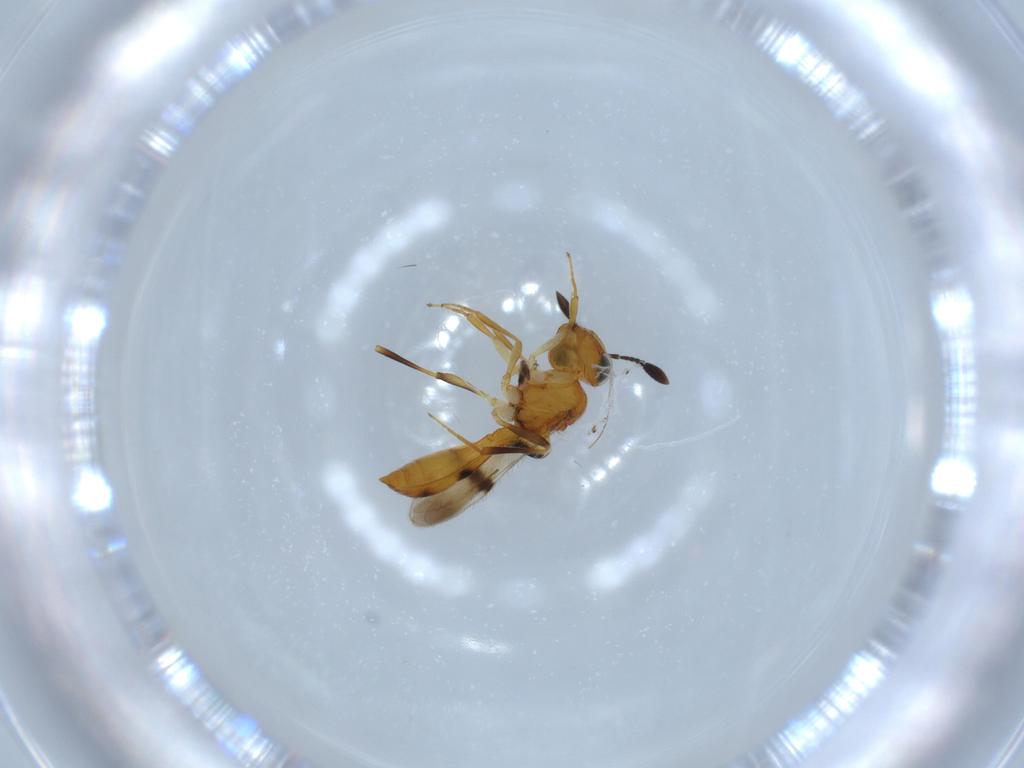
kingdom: Animalia
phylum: Arthropoda
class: Insecta
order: Hymenoptera
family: Scelionidae
